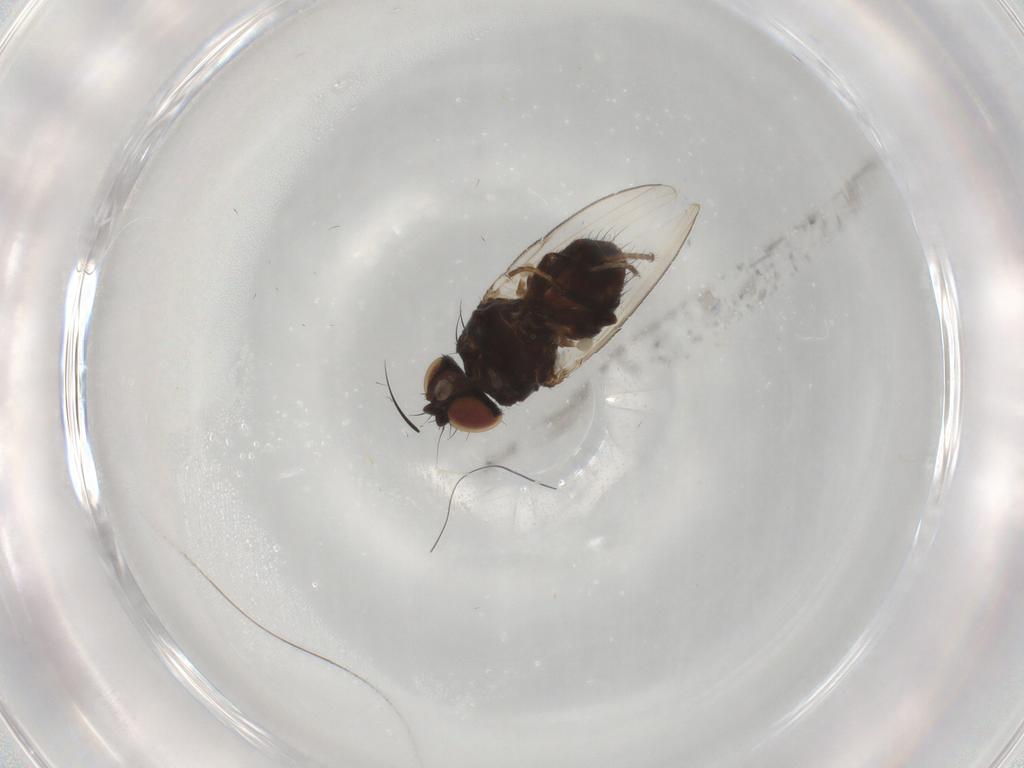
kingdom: Animalia
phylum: Arthropoda
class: Insecta
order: Diptera
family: Milichiidae
